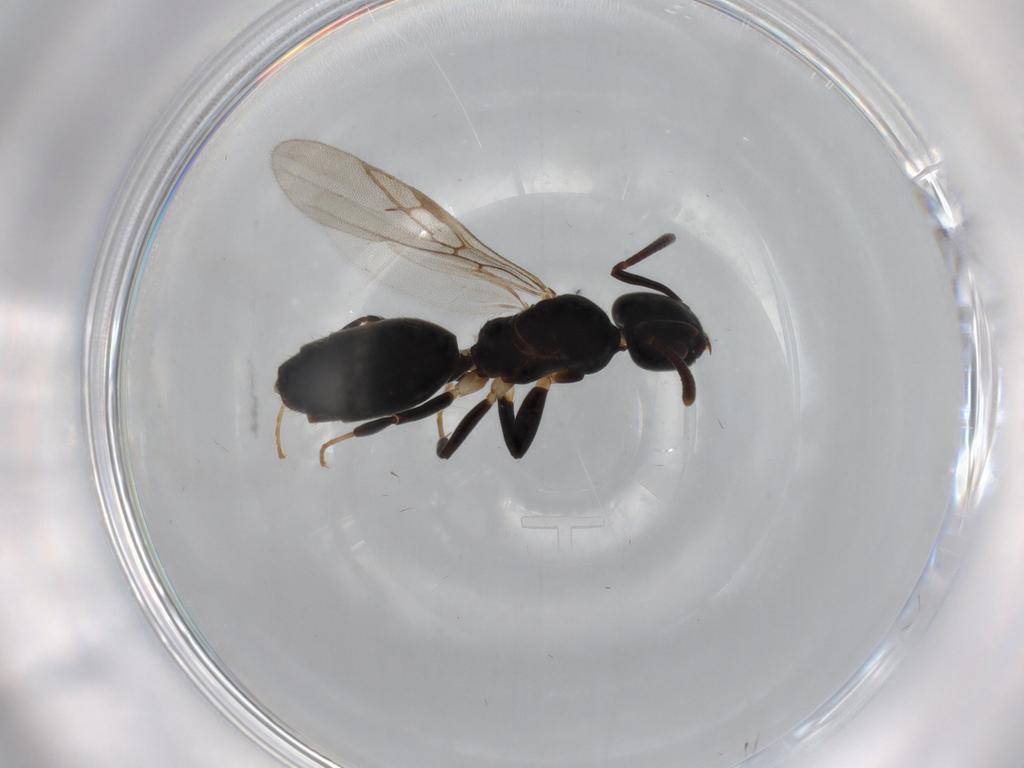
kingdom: Animalia
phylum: Arthropoda
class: Insecta
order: Hymenoptera
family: Formicidae
